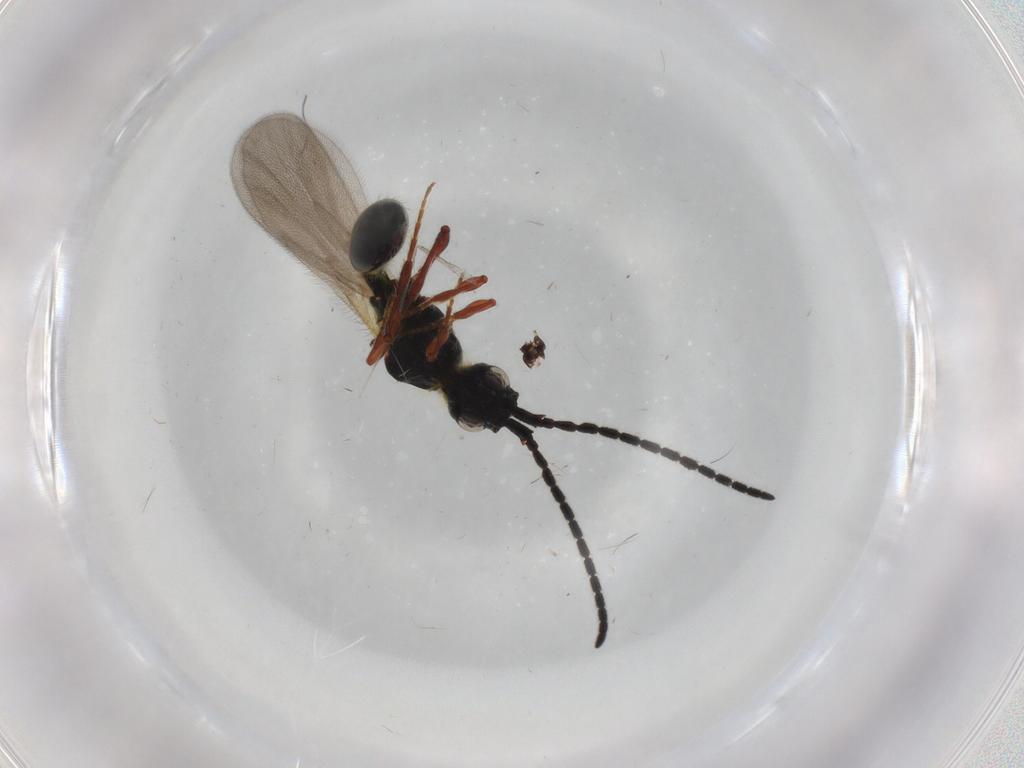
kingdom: Animalia
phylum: Arthropoda
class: Insecta
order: Hymenoptera
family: Diapriidae
